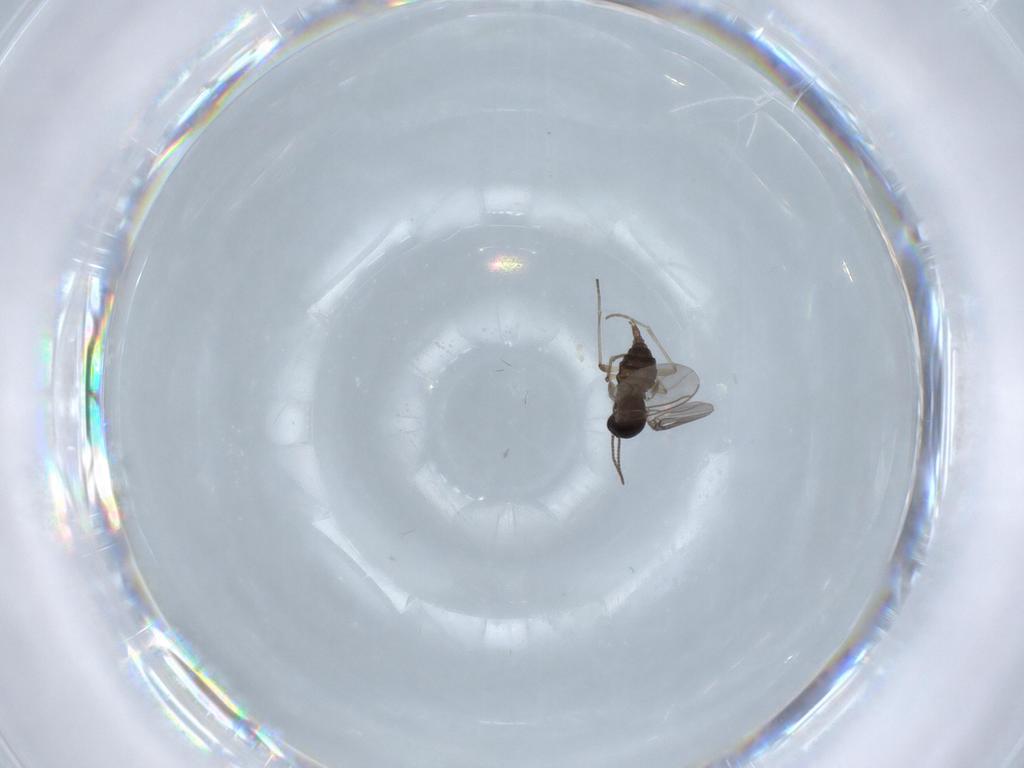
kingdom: Animalia
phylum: Arthropoda
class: Insecta
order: Diptera
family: Sciaridae
